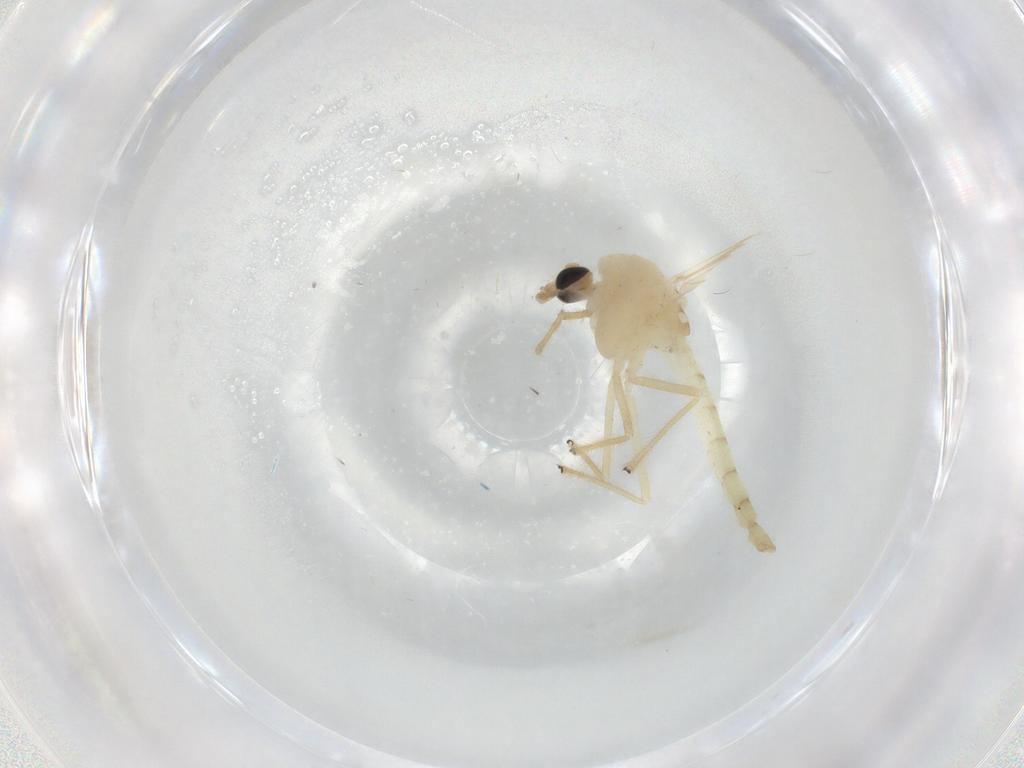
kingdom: Animalia
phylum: Arthropoda
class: Insecta
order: Diptera
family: Chironomidae
